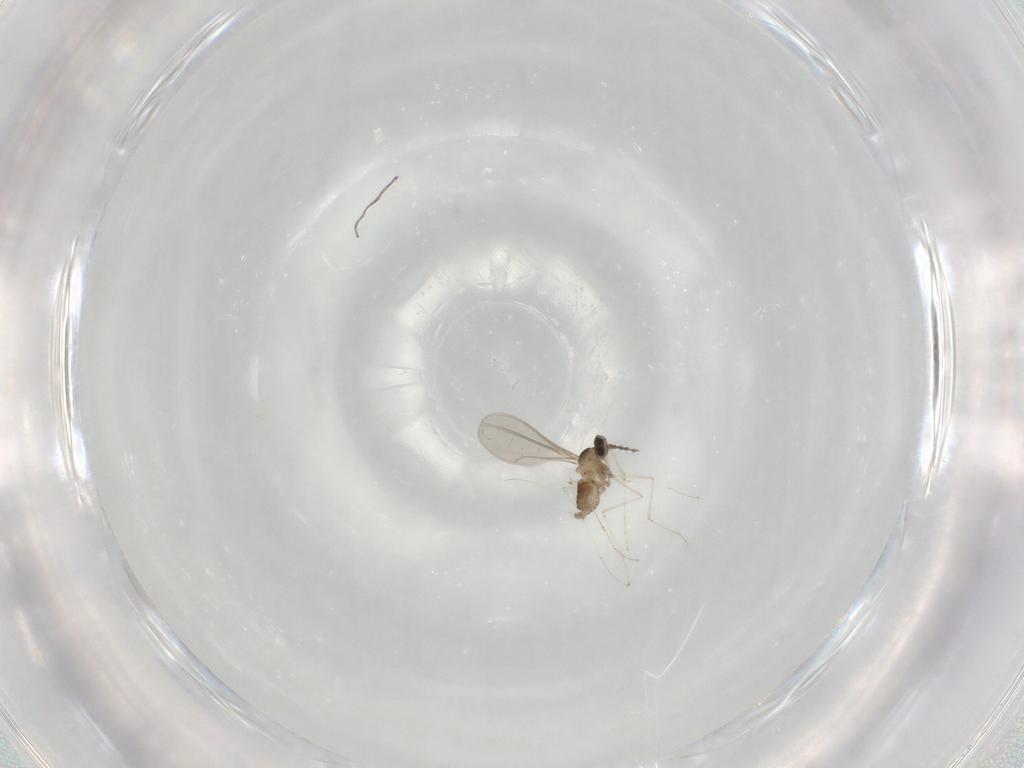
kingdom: Animalia
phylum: Arthropoda
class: Insecta
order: Diptera
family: Cecidomyiidae
